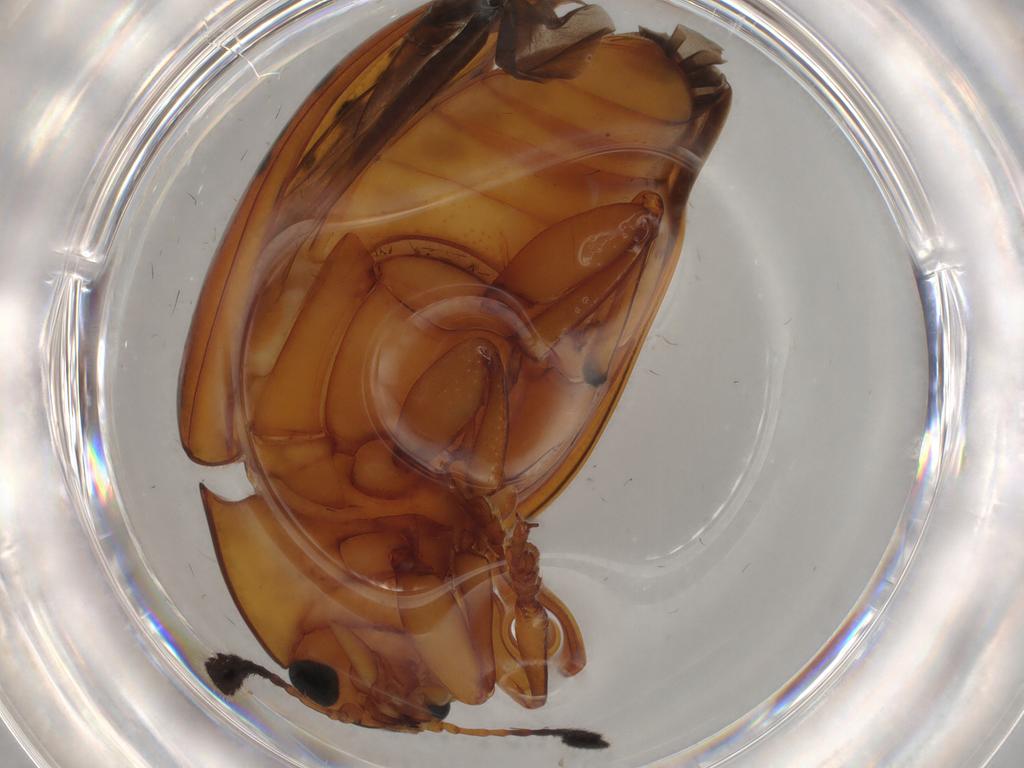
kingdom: Animalia
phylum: Arthropoda
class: Insecta
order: Coleoptera
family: Erotylidae
